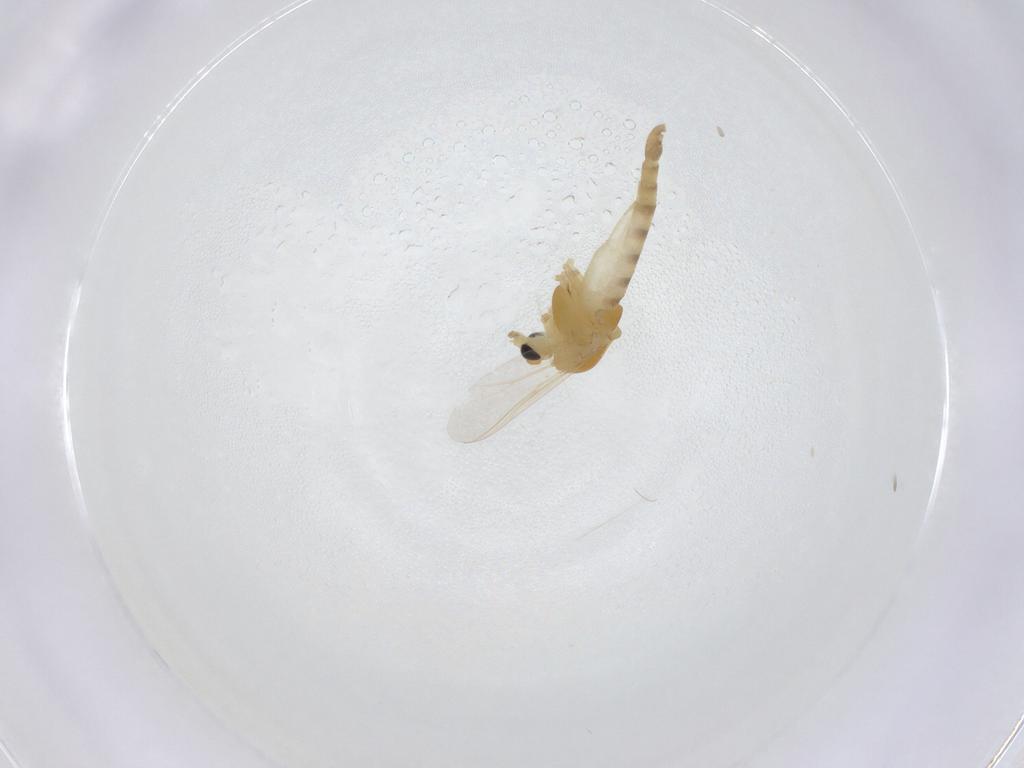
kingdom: Animalia
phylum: Arthropoda
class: Insecta
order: Diptera
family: Chironomidae
